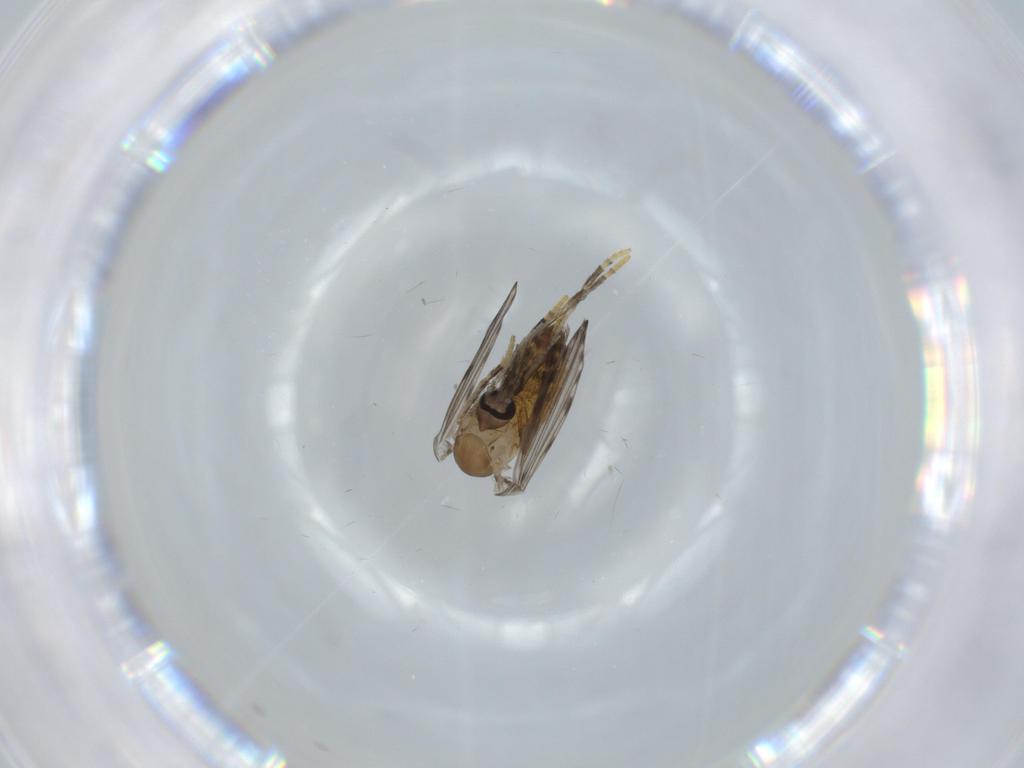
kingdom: Animalia
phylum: Arthropoda
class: Insecta
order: Diptera
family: Psychodidae
